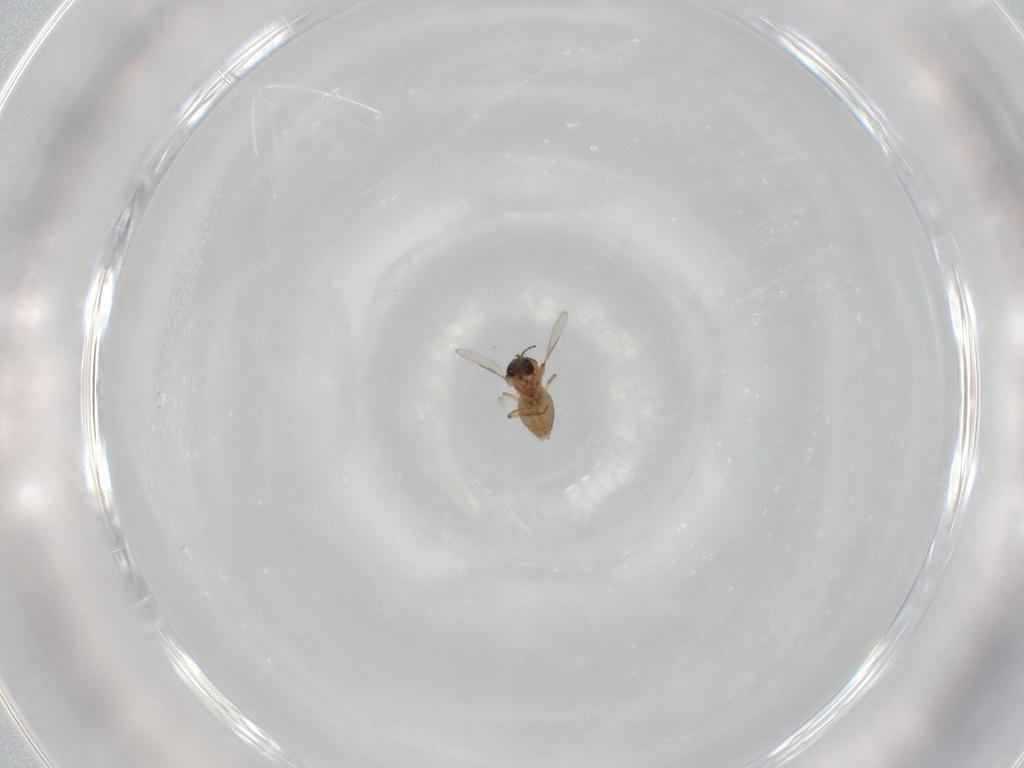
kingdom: Animalia
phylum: Arthropoda
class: Insecta
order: Diptera
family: Ceratopogonidae
